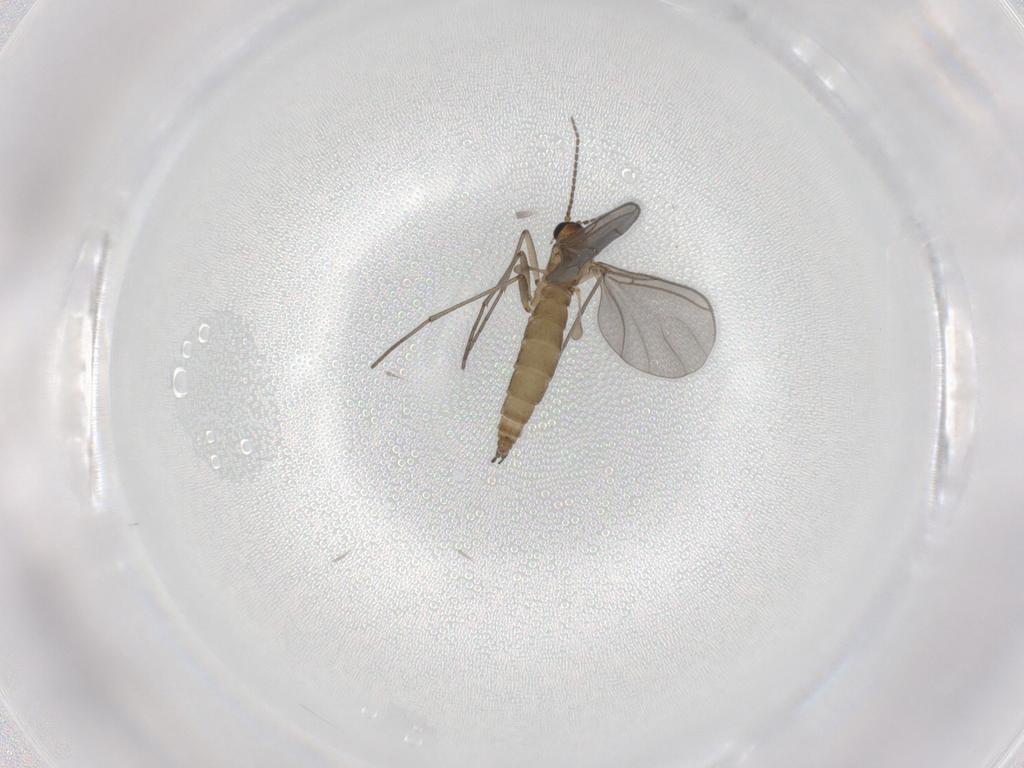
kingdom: Animalia
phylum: Arthropoda
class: Insecta
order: Diptera
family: Sciaridae
